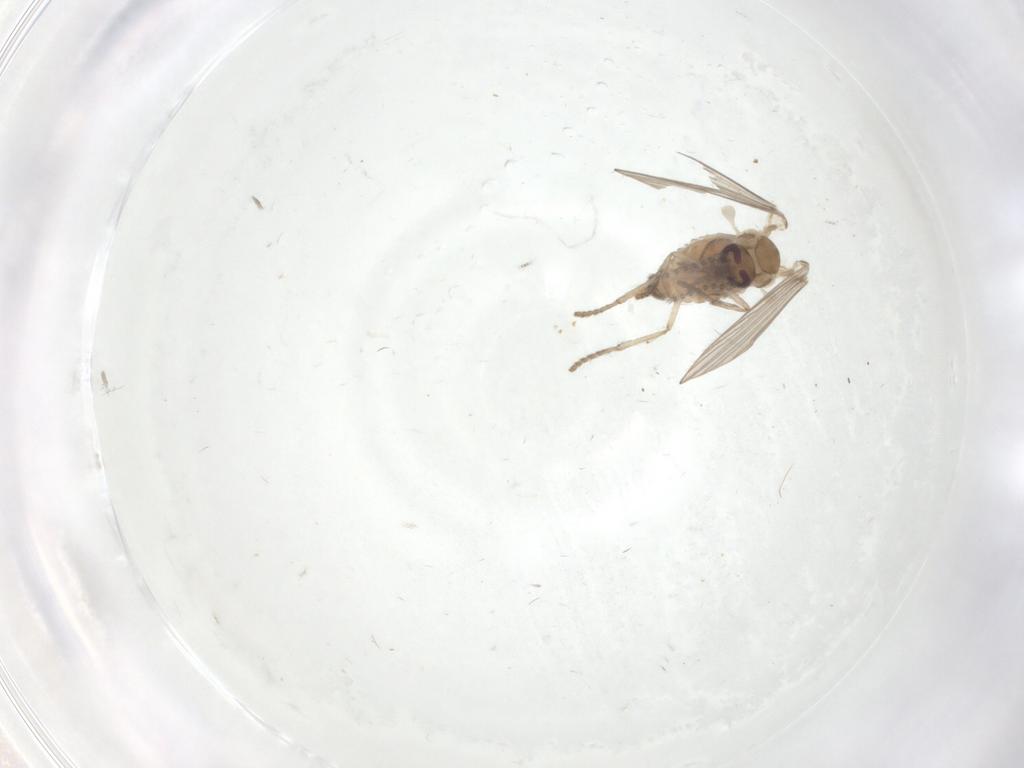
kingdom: Animalia
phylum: Arthropoda
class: Insecta
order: Diptera
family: Psychodidae
